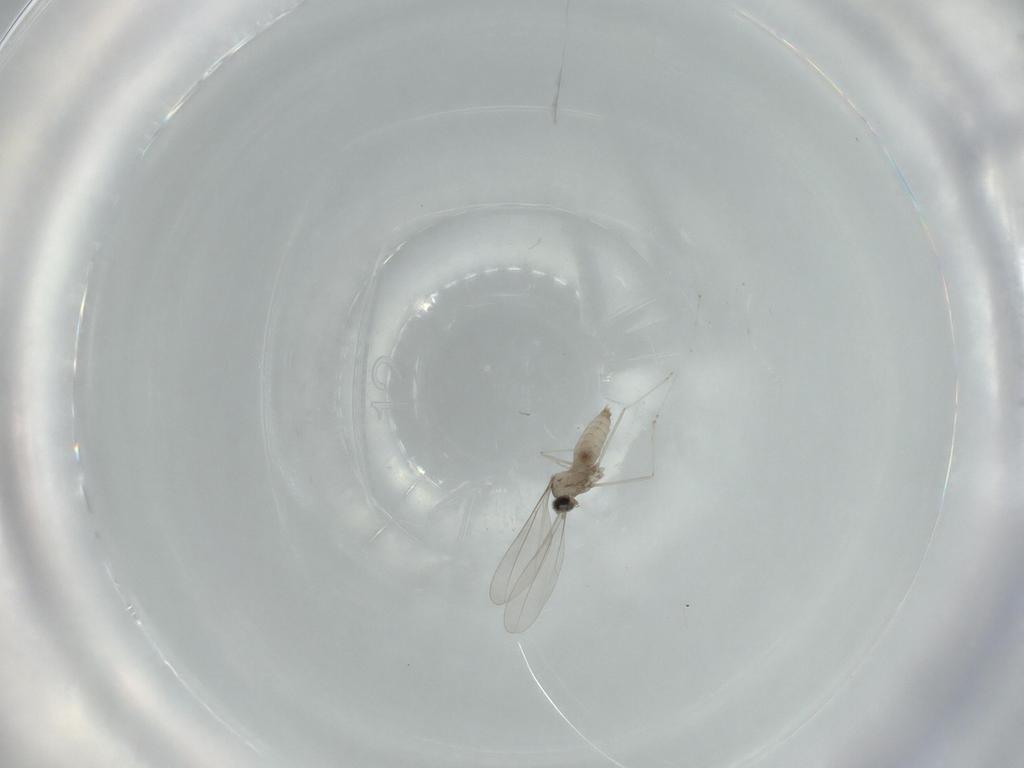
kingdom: Animalia
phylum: Arthropoda
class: Insecta
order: Diptera
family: Cecidomyiidae
